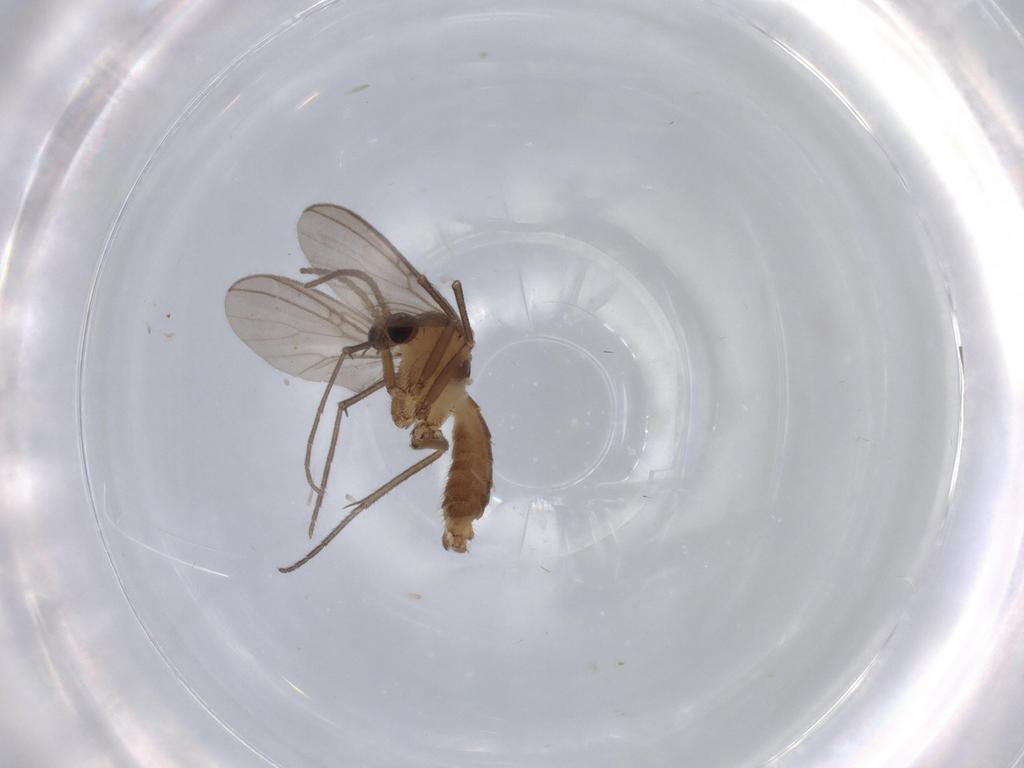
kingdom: Animalia
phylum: Arthropoda
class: Insecta
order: Diptera
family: Mycetophilidae
